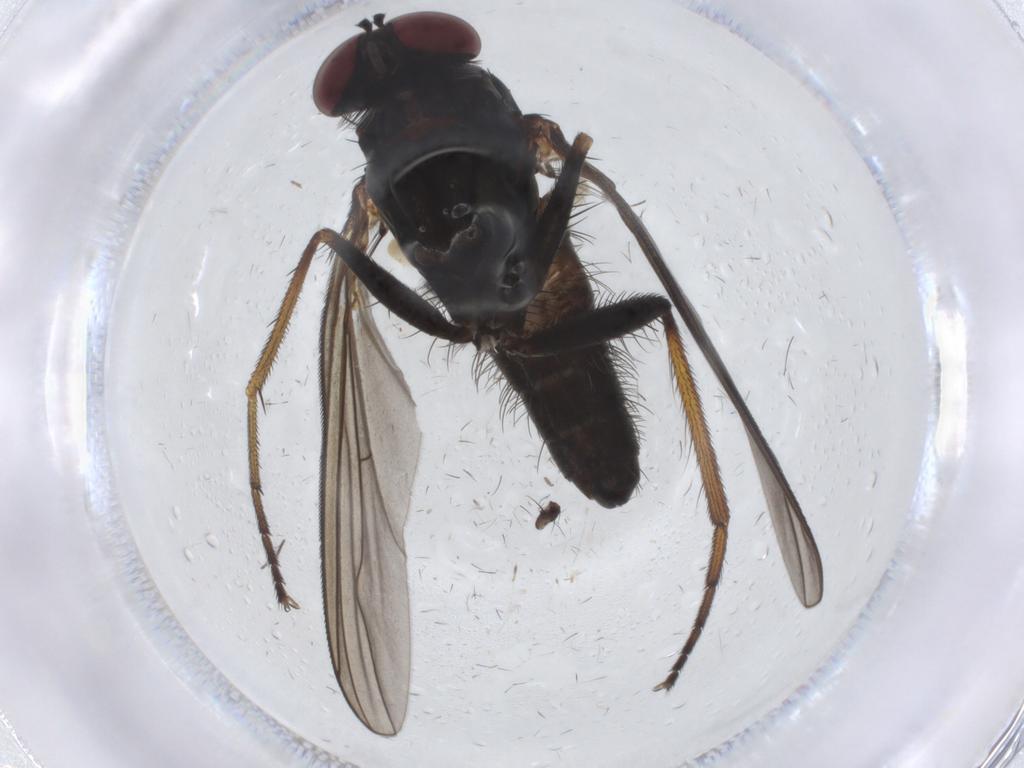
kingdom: Animalia
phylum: Arthropoda
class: Insecta
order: Diptera
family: Dolichopodidae
